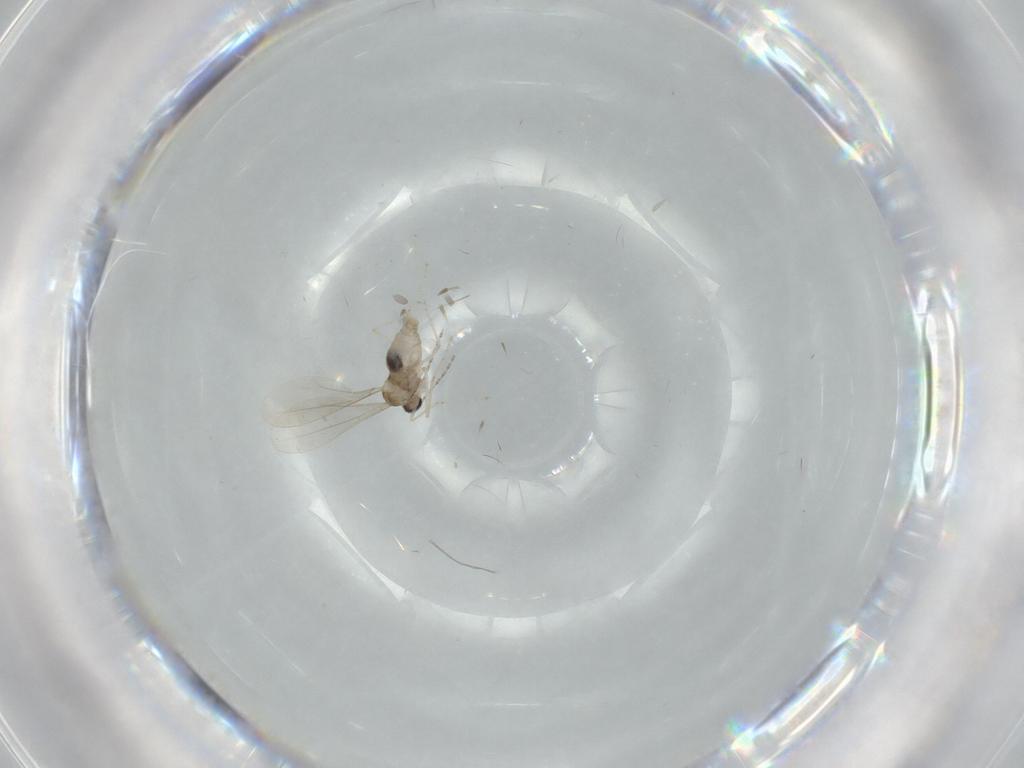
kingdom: Animalia
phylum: Arthropoda
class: Insecta
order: Diptera
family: Cecidomyiidae
